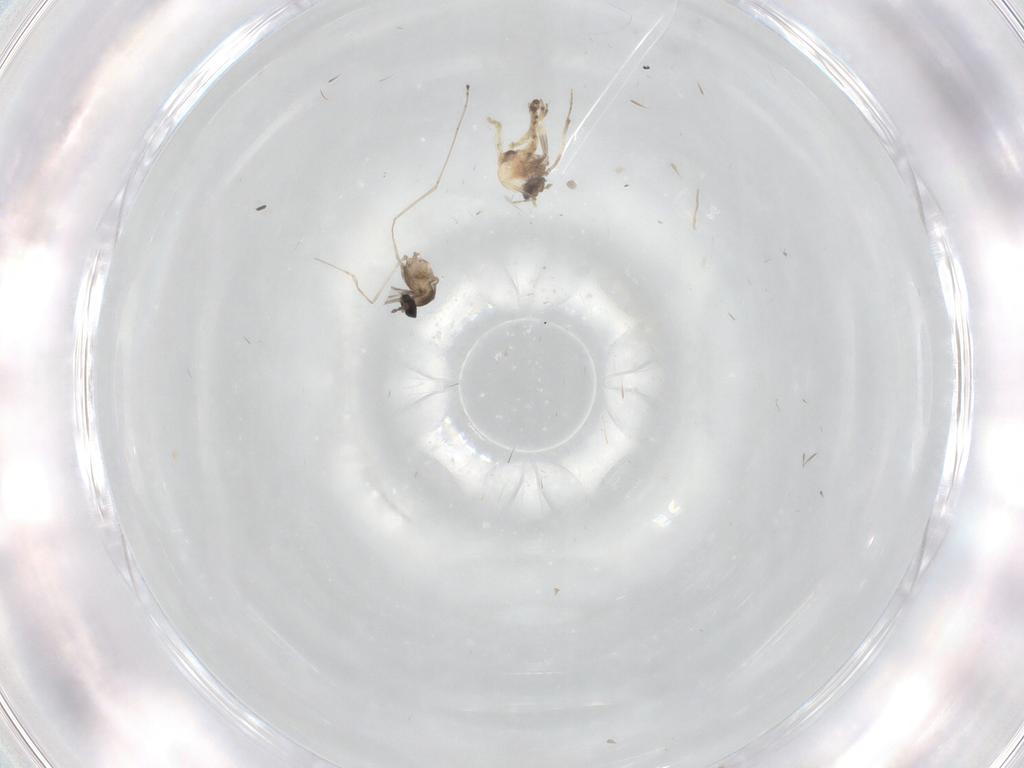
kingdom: Animalia
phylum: Arthropoda
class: Insecta
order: Diptera
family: Ceratopogonidae
